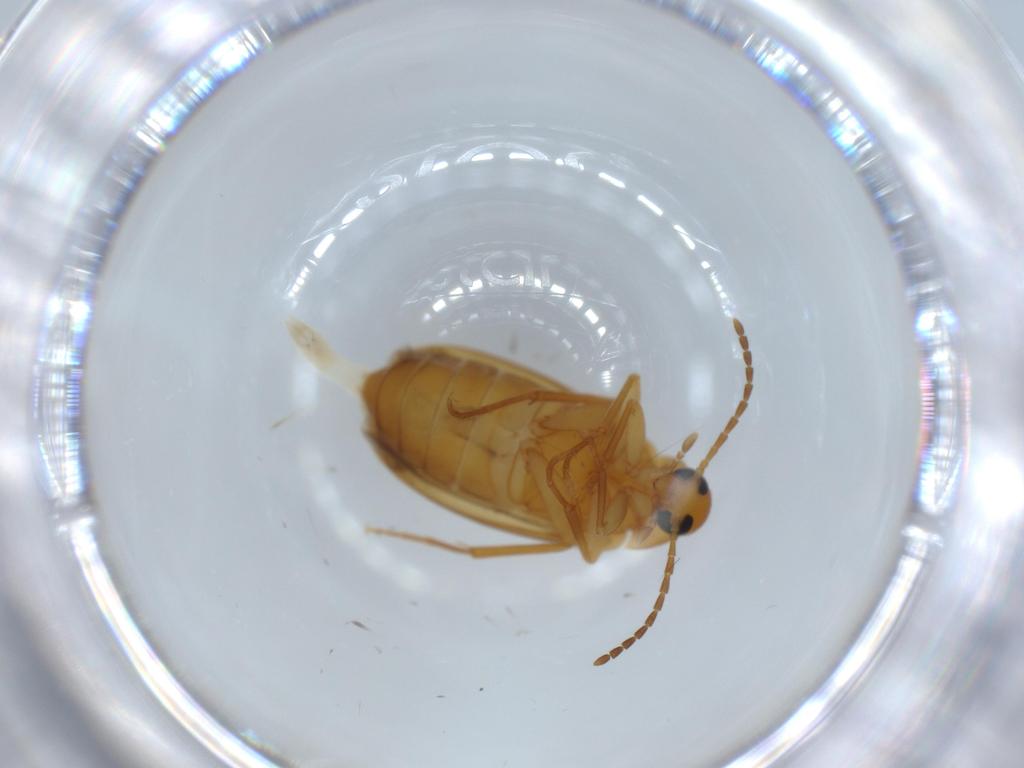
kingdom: Animalia
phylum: Arthropoda
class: Insecta
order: Coleoptera
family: Scraptiidae
